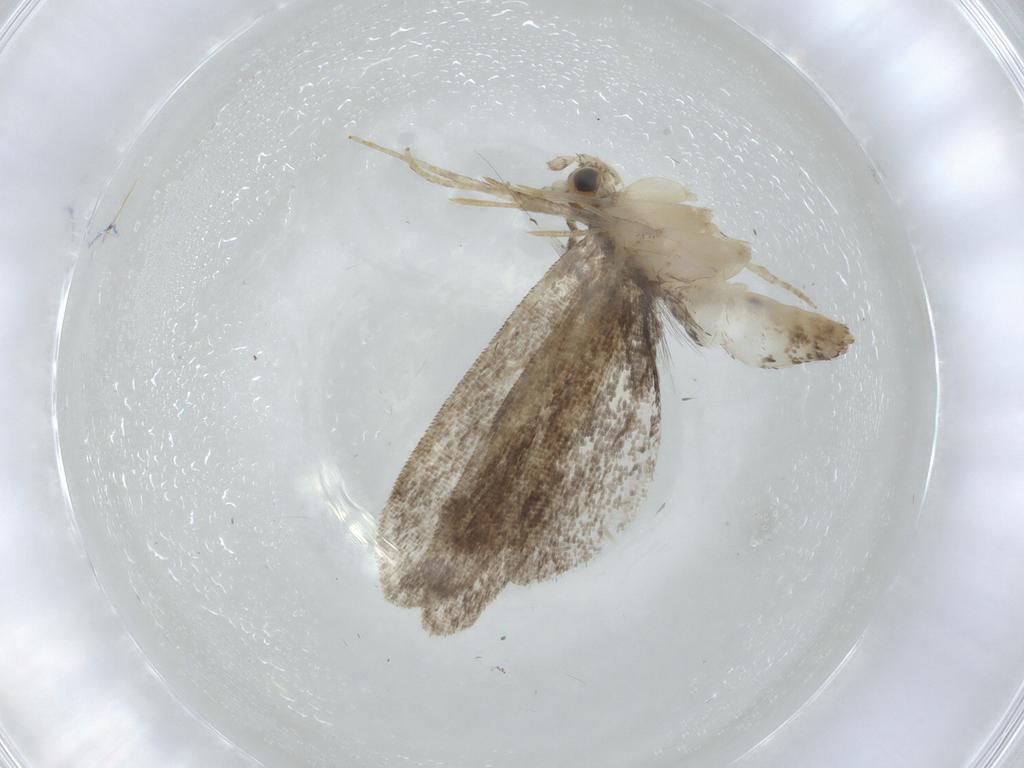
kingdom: Animalia
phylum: Arthropoda
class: Insecta
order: Lepidoptera
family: Dryadaulidae
